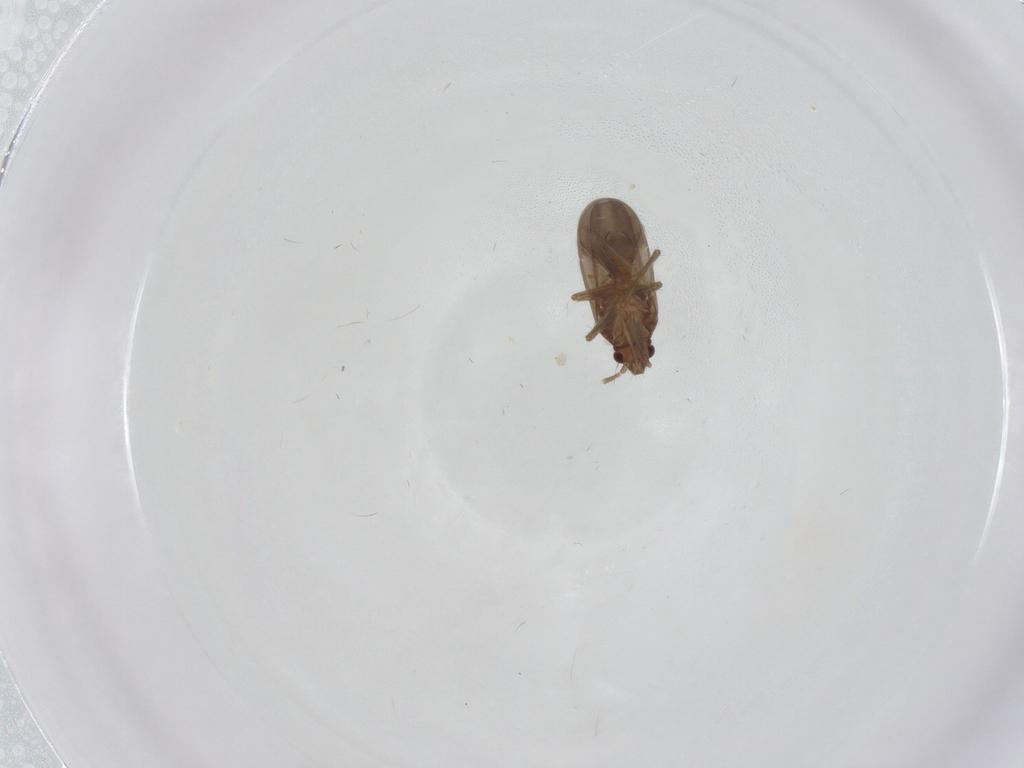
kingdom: Animalia
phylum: Arthropoda
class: Insecta
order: Hemiptera
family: Ceratocombidae
